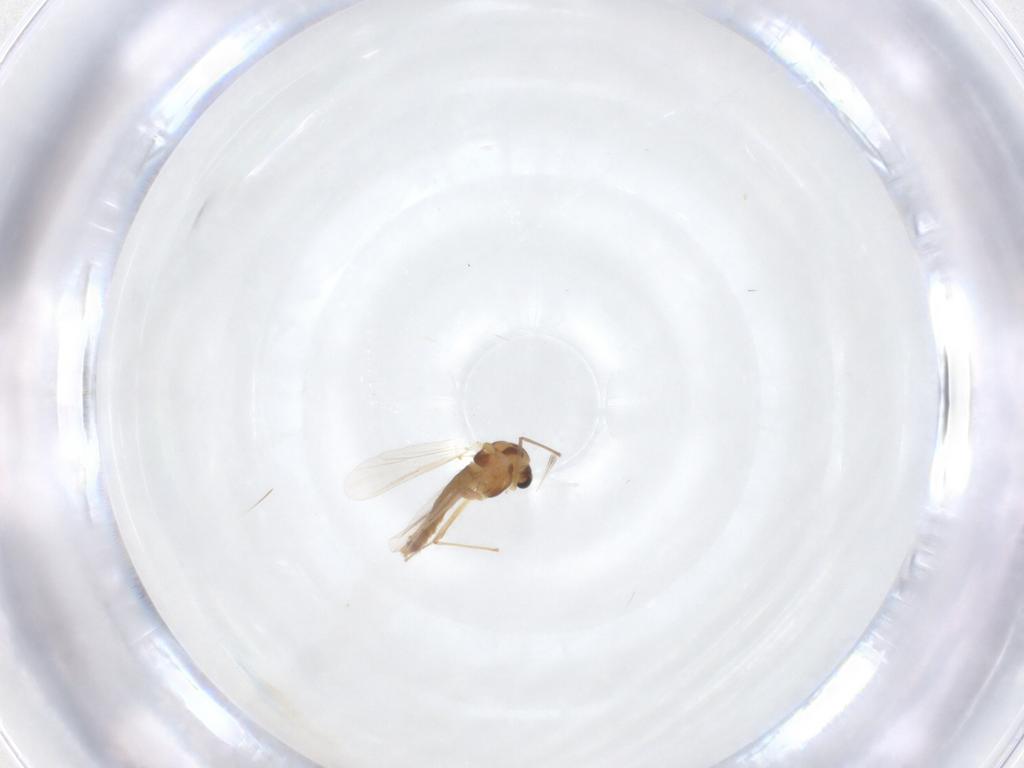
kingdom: Animalia
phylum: Arthropoda
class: Insecta
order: Diptera
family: Chironomidae
